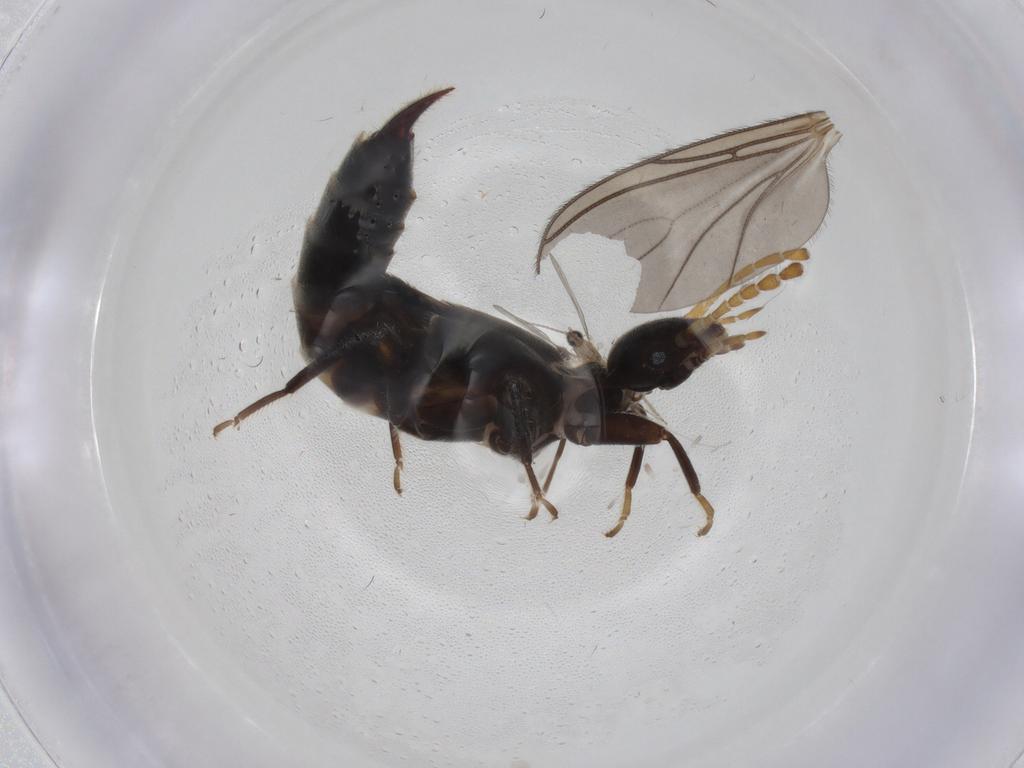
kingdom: Animalia
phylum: Arthropoda
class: Insecta
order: Dermaptera
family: Forficulidae
